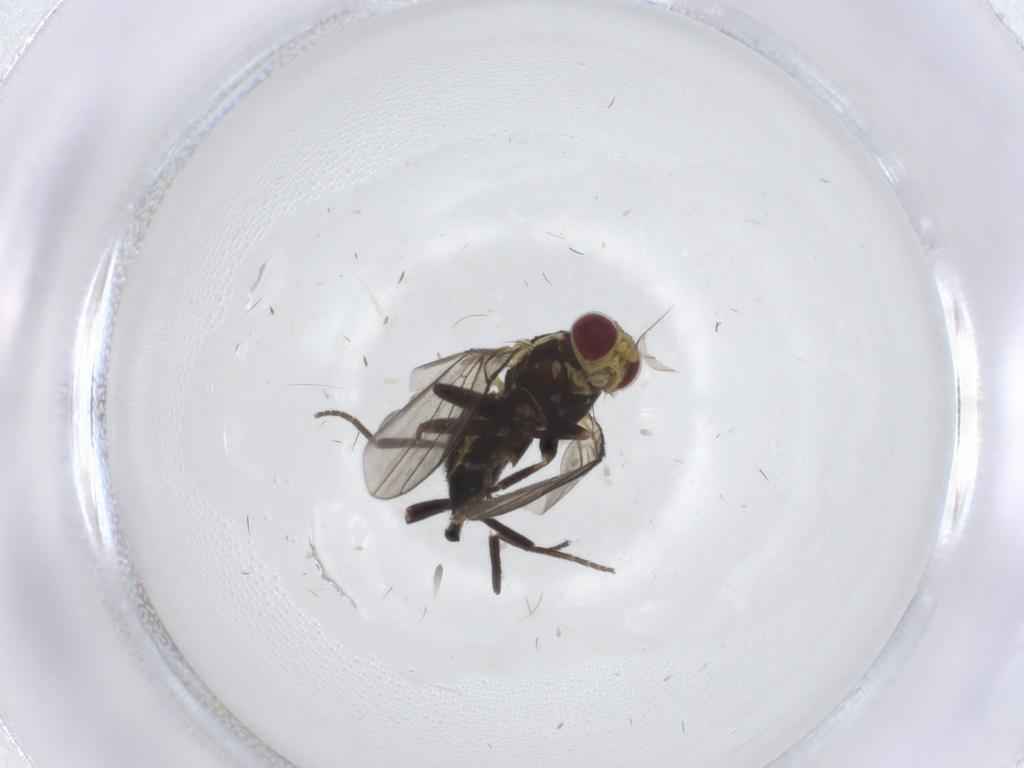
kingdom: Animalia
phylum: Arthropoda
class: Insecta
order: Diptera
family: Agromyzidae
